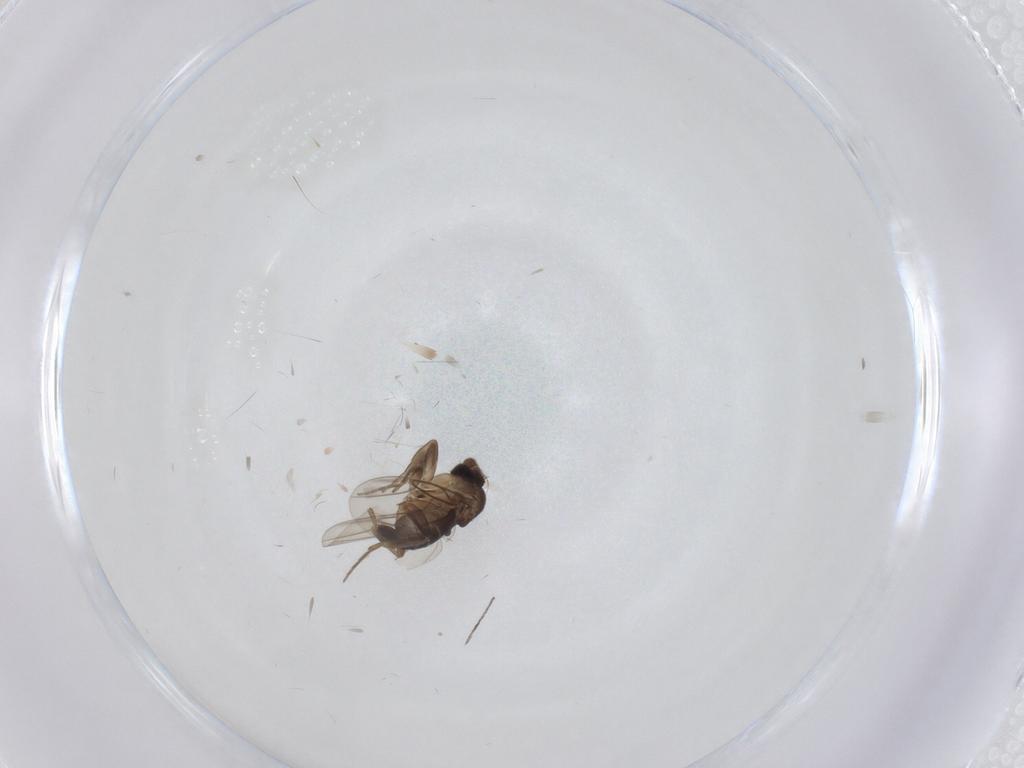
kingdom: Animalia
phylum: Arthropoda
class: Insecta
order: Diptera
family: Phoridae
